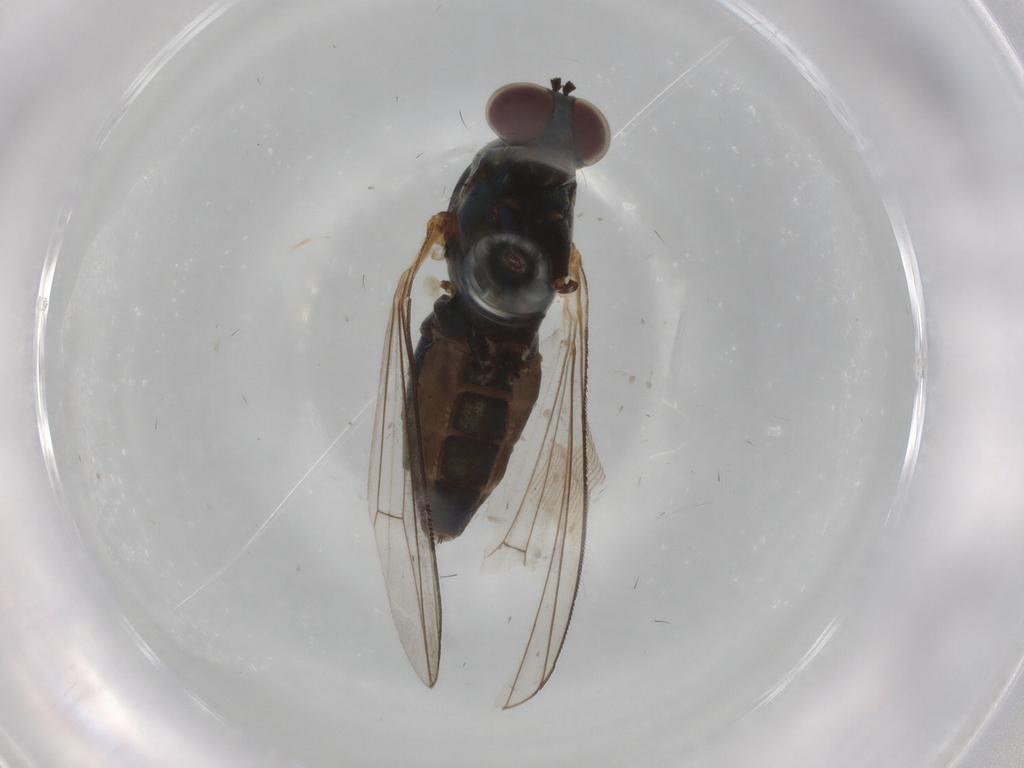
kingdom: Animalia
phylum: Arthropoda
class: Insecta
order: Diptera
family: Dolichopodidae
